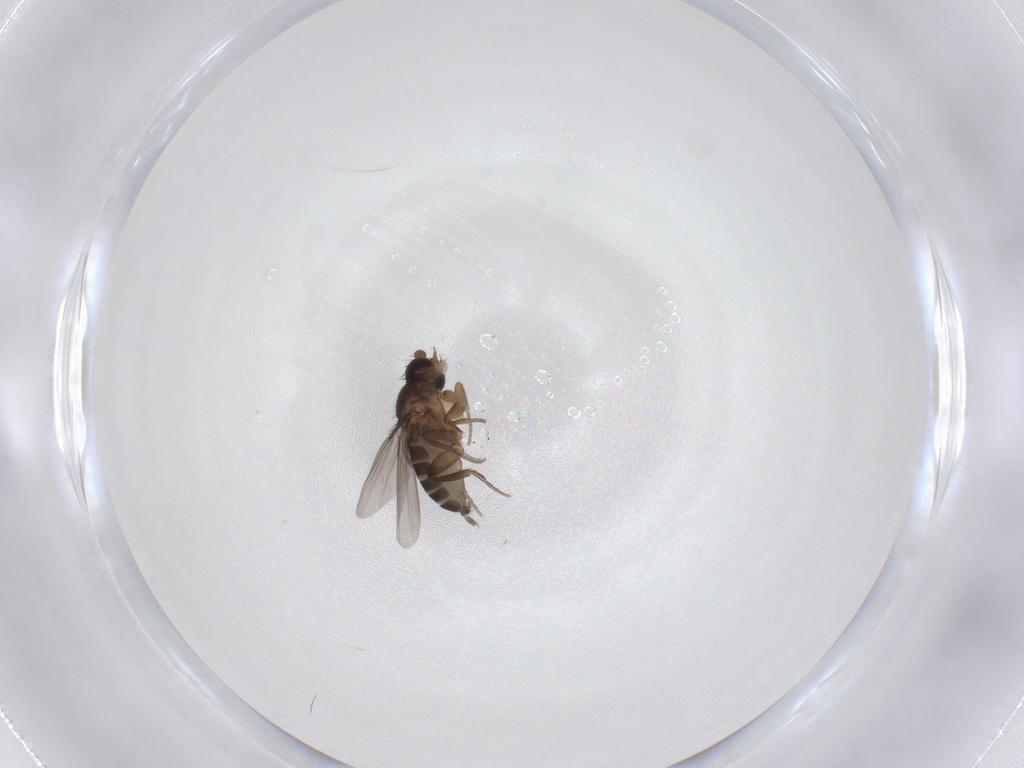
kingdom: Animalia
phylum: Arthropoda
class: Insecta
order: Diptera
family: Phoridae
